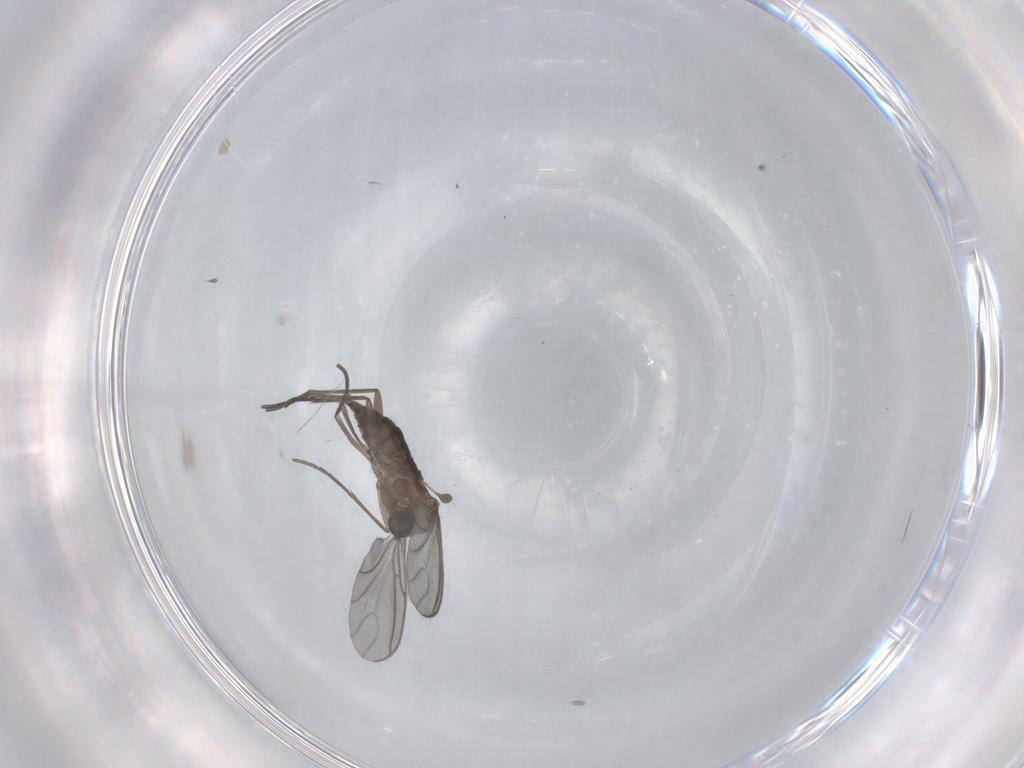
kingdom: Animalia
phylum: Arthropoda
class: Insecta
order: Diptera
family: Sciaridae
